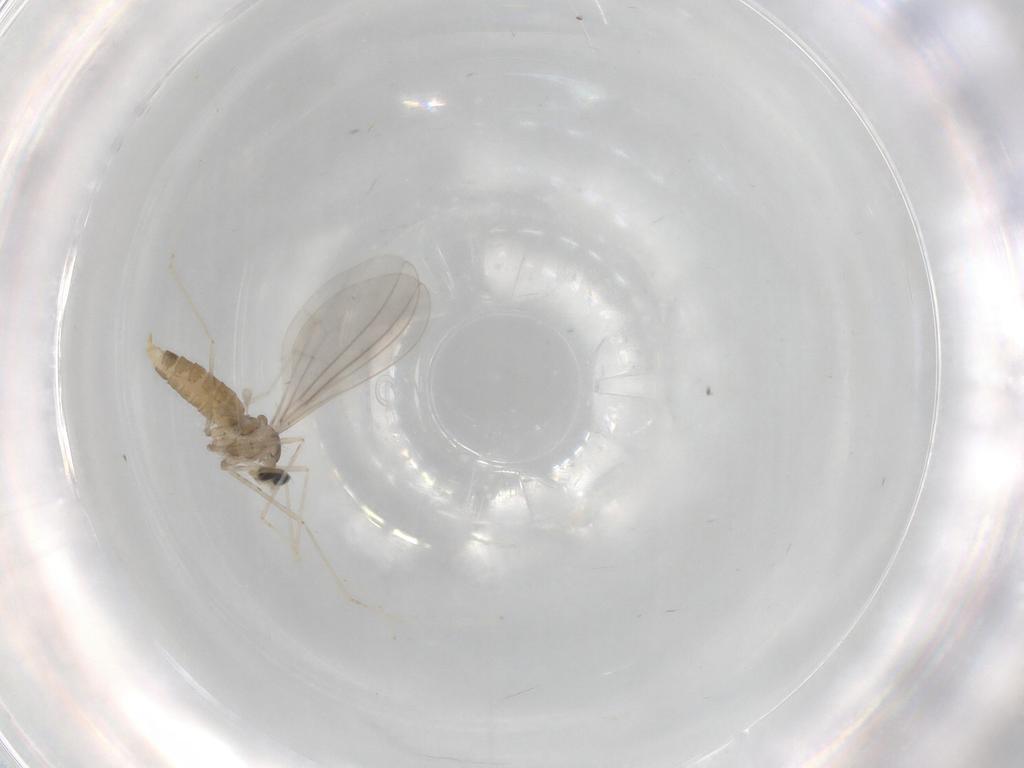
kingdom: Animalia
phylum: Arthropoda
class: Insecta
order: Diptera
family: Cecidomyiidae
